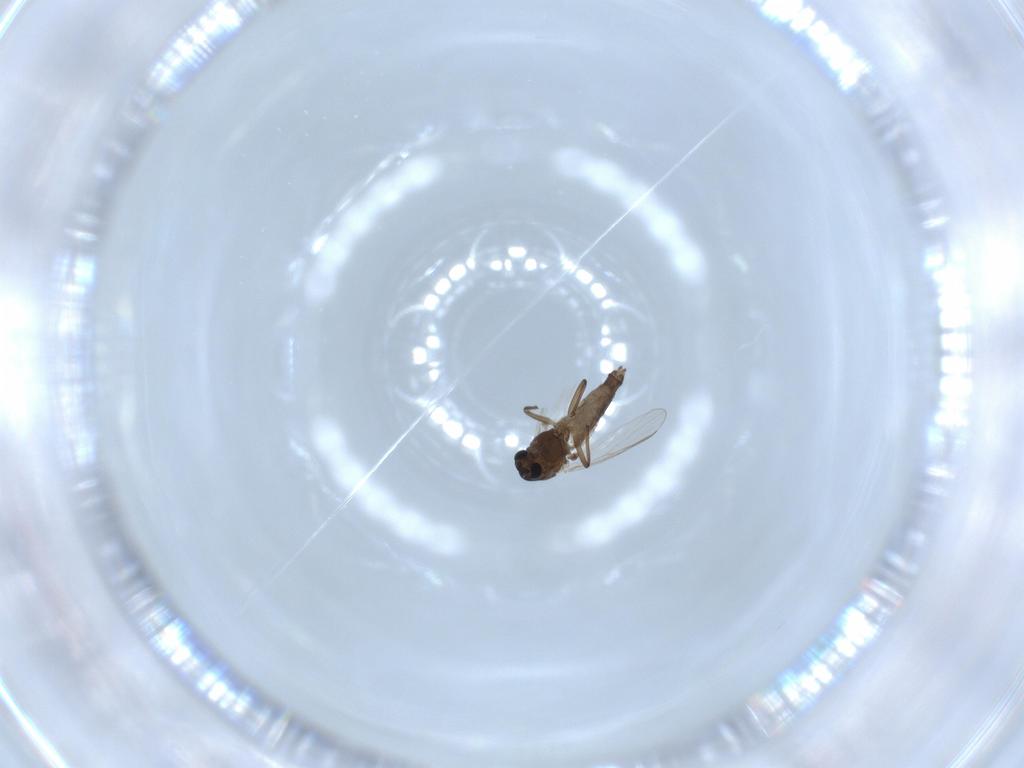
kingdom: Animalia
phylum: Arthropoda
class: Insecta
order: Diptera
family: Chironomidae
